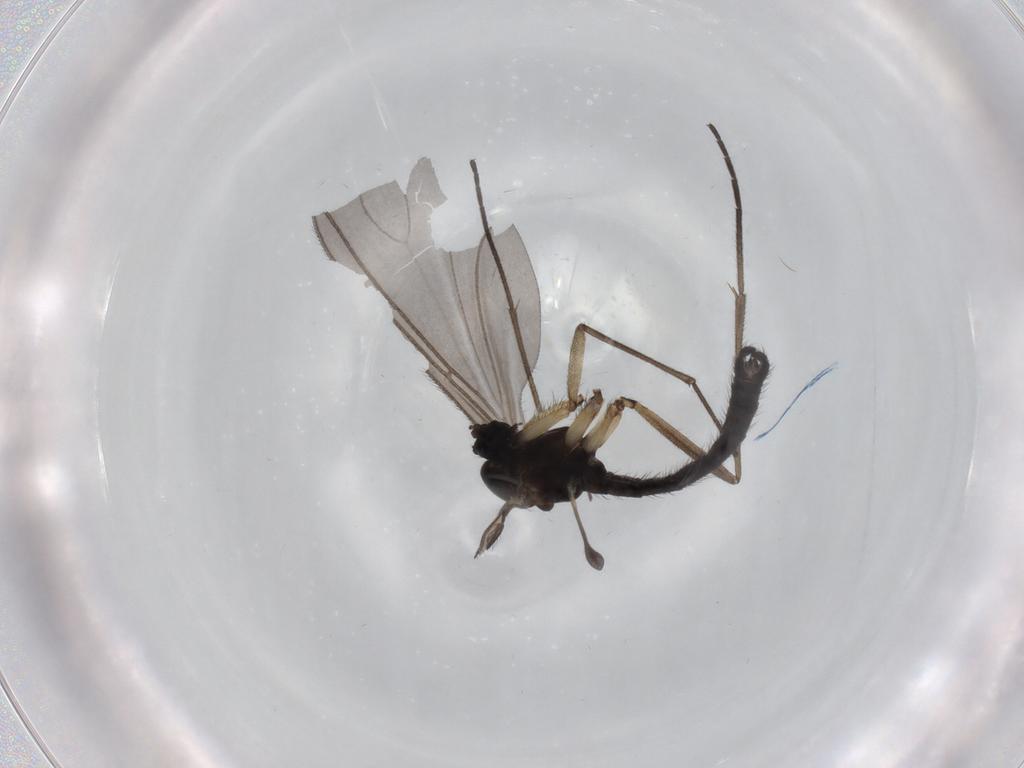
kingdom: Animalia
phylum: Arthropoda
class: Insecta
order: Diptera
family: Sciaridae
